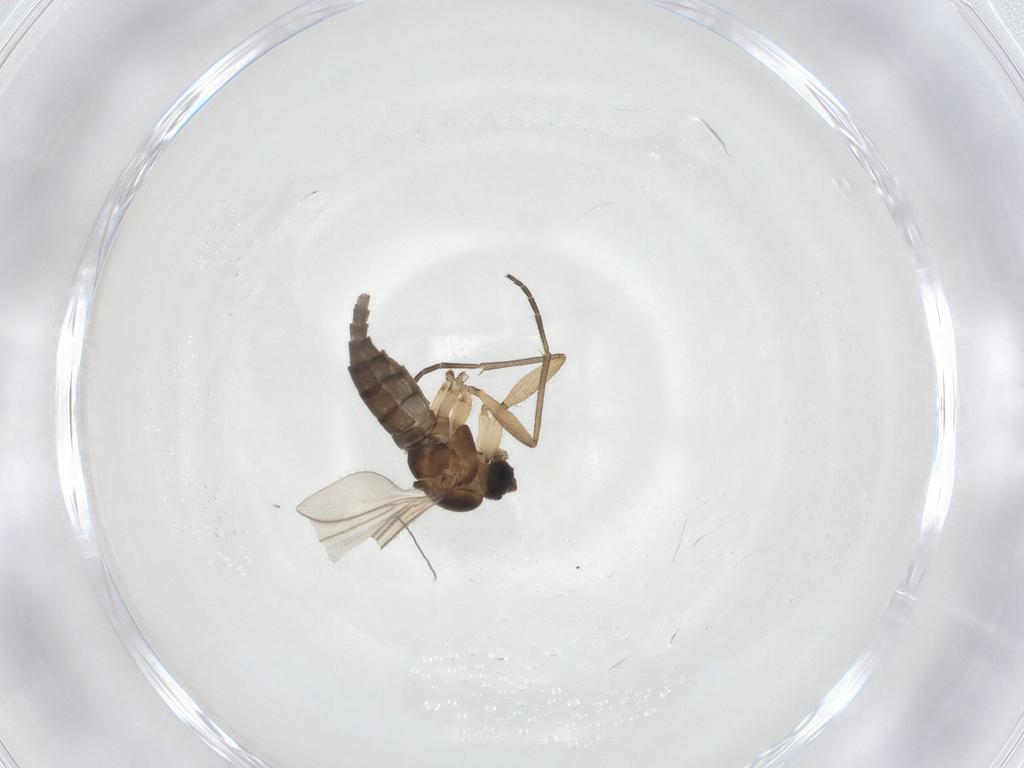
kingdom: Animalia
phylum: Arthropoda
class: Insecta
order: Diptera
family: Sciaridae
